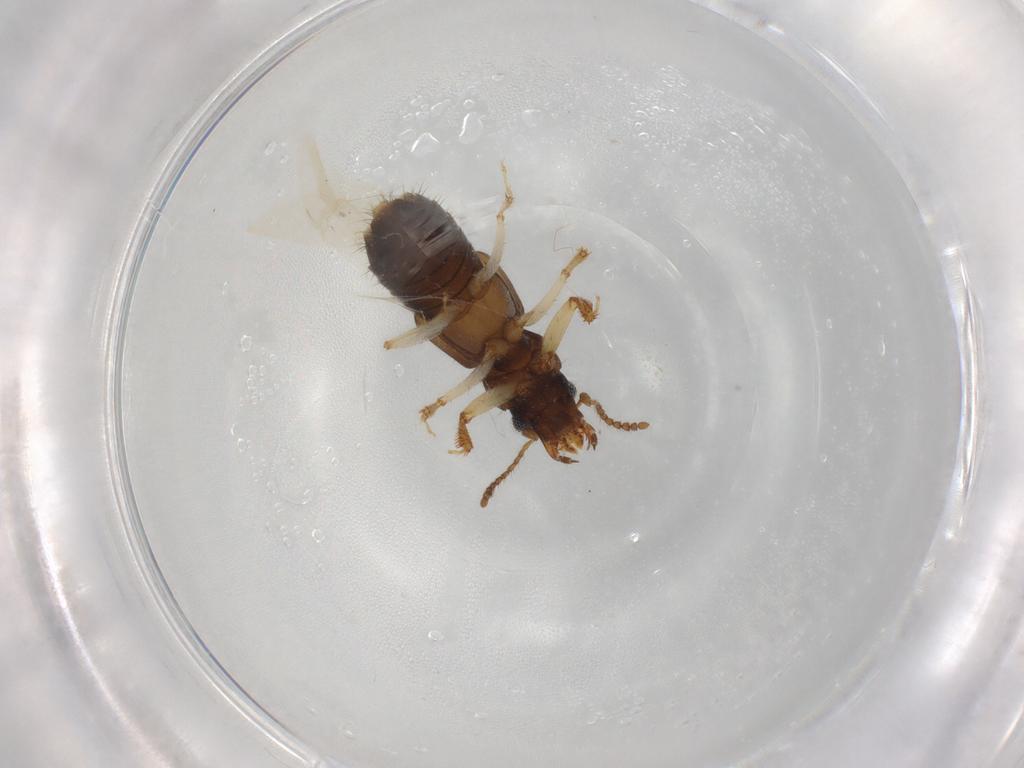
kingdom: Animalia
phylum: Arthropoda
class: Insecta
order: Coleoptera
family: Staphylinidae
